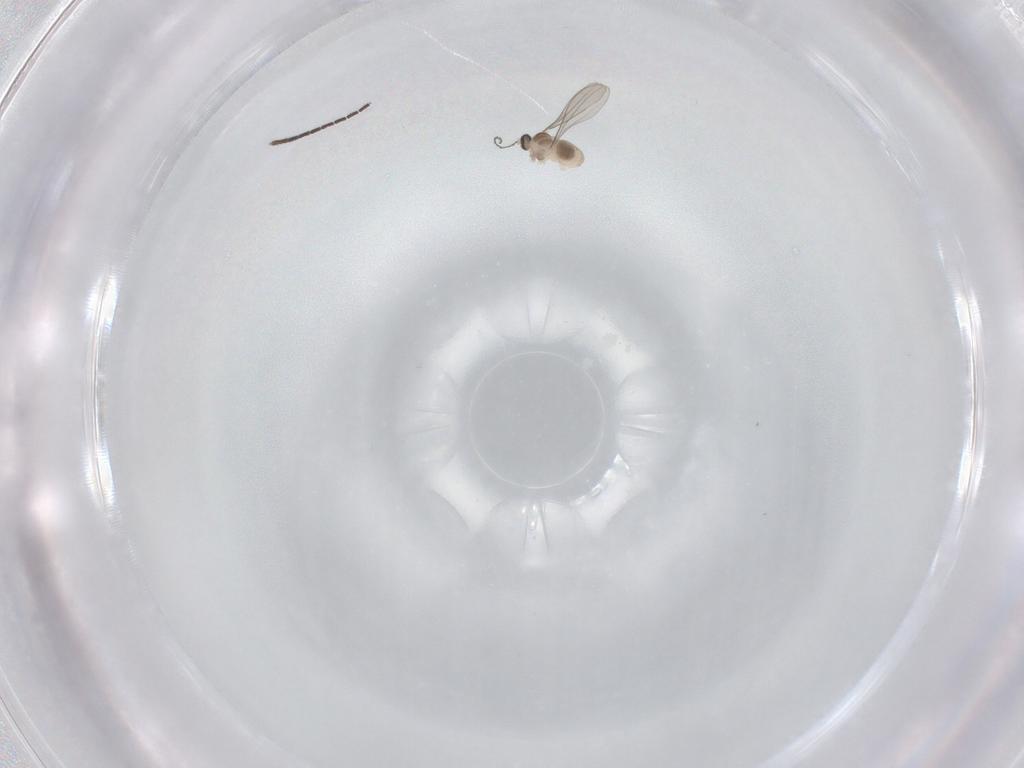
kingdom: Animalia
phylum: Arthropoda
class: Insecta
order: Diptera
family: Sciaridae
